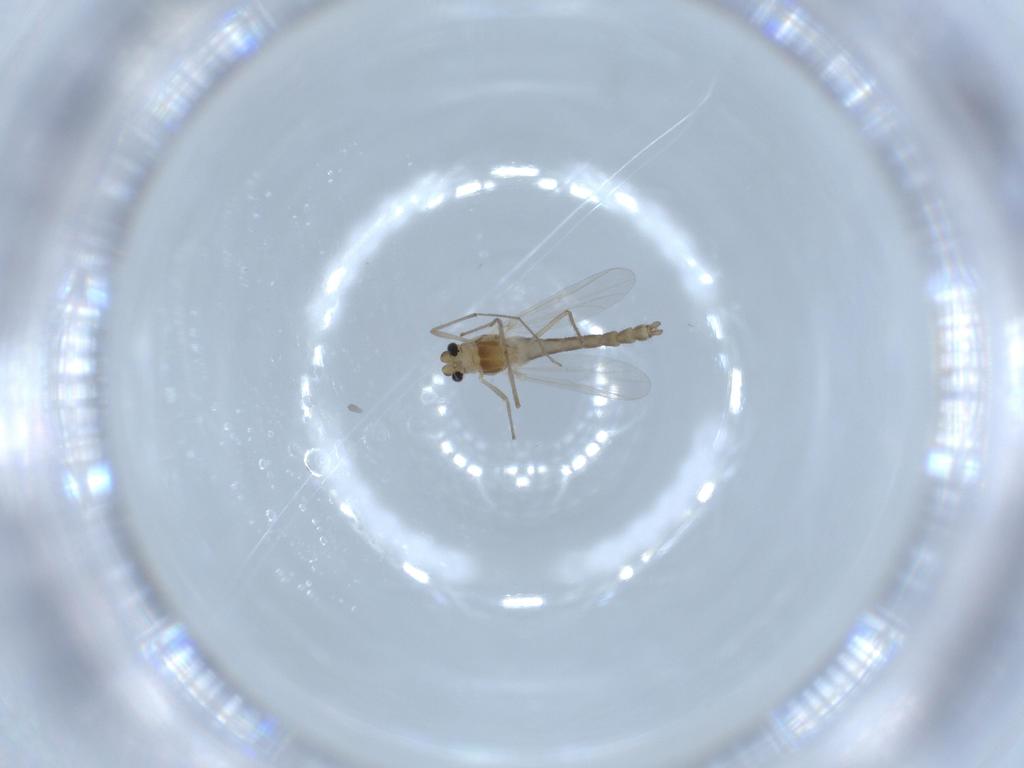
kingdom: Animalia
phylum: Arthropoda
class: Insecta
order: Diptera
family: Chironomidae
